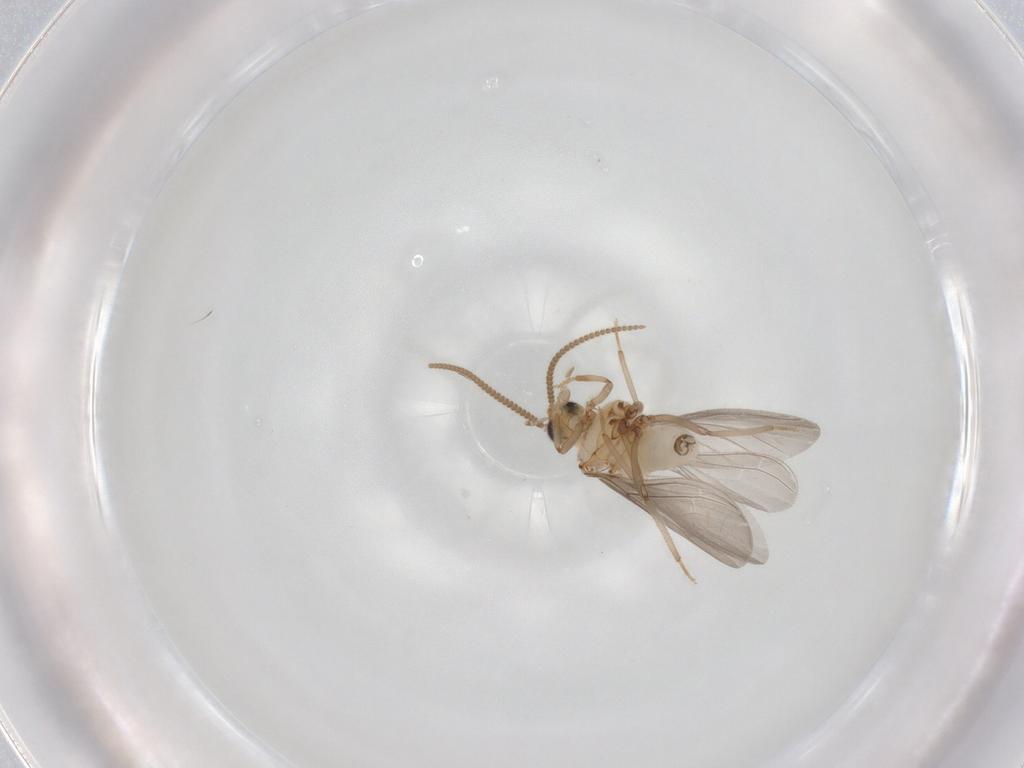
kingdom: Animalia
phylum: Arthropoda
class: Insecta
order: Neuroptera
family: Coniopterygidae
